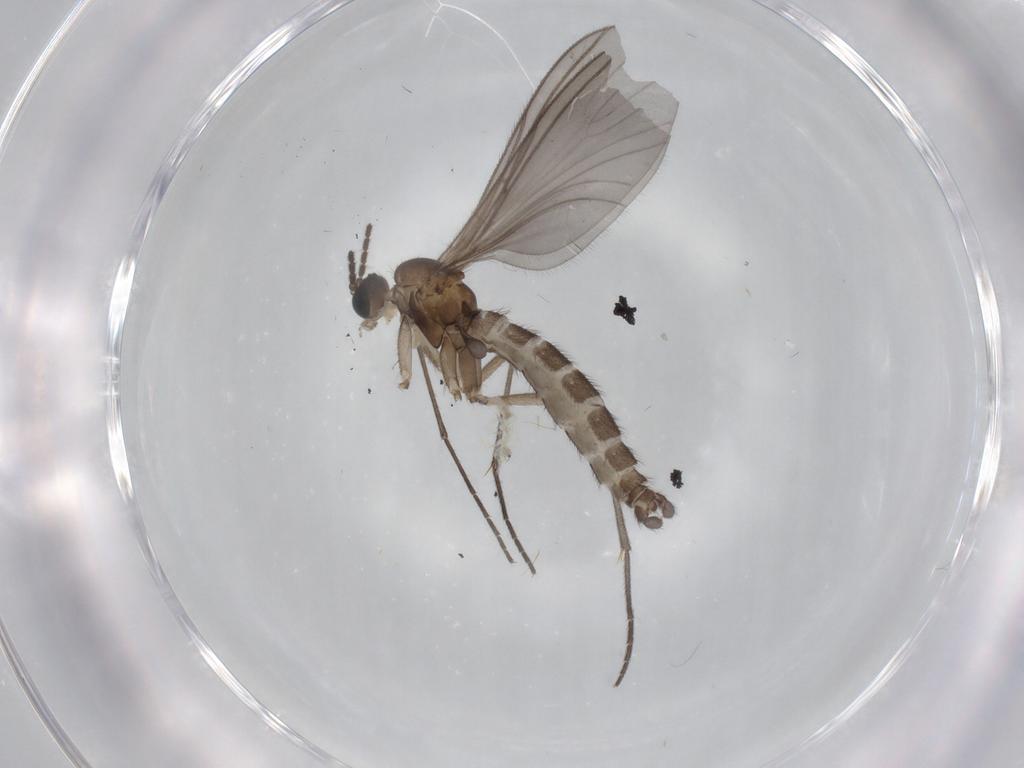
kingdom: Animalia
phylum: Arthropoda
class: Insecta
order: Diptera
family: Sciaridae
